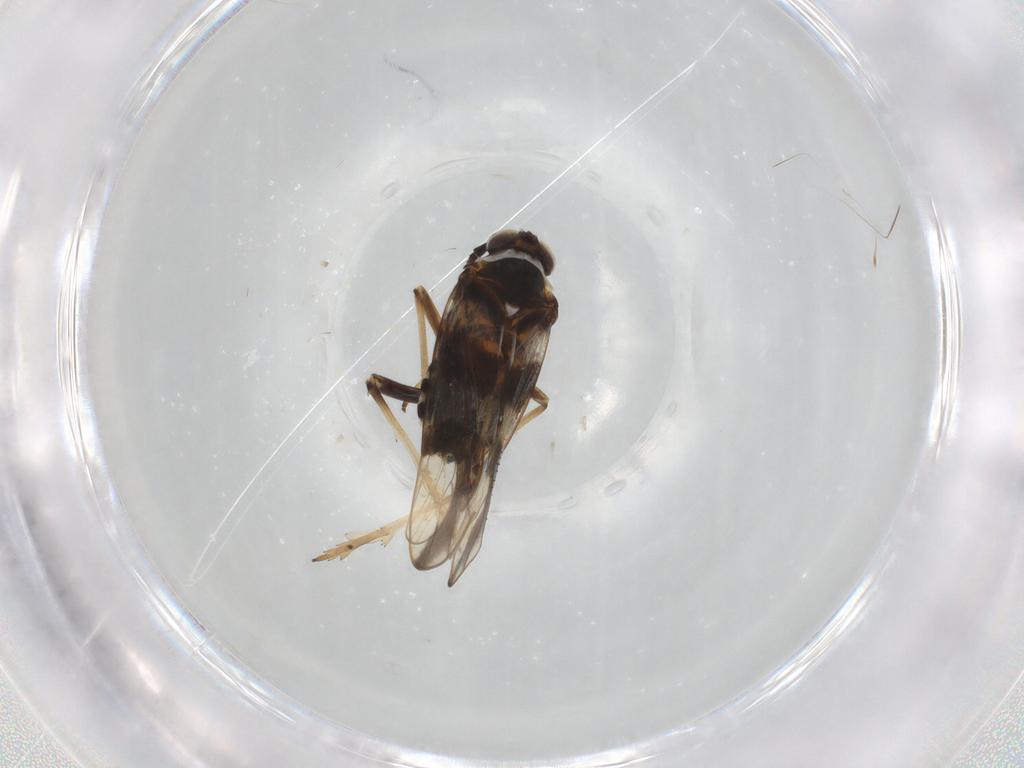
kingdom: Animalia
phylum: Arthropoda
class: Insecta
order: Hemiptera
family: Delphacidae
